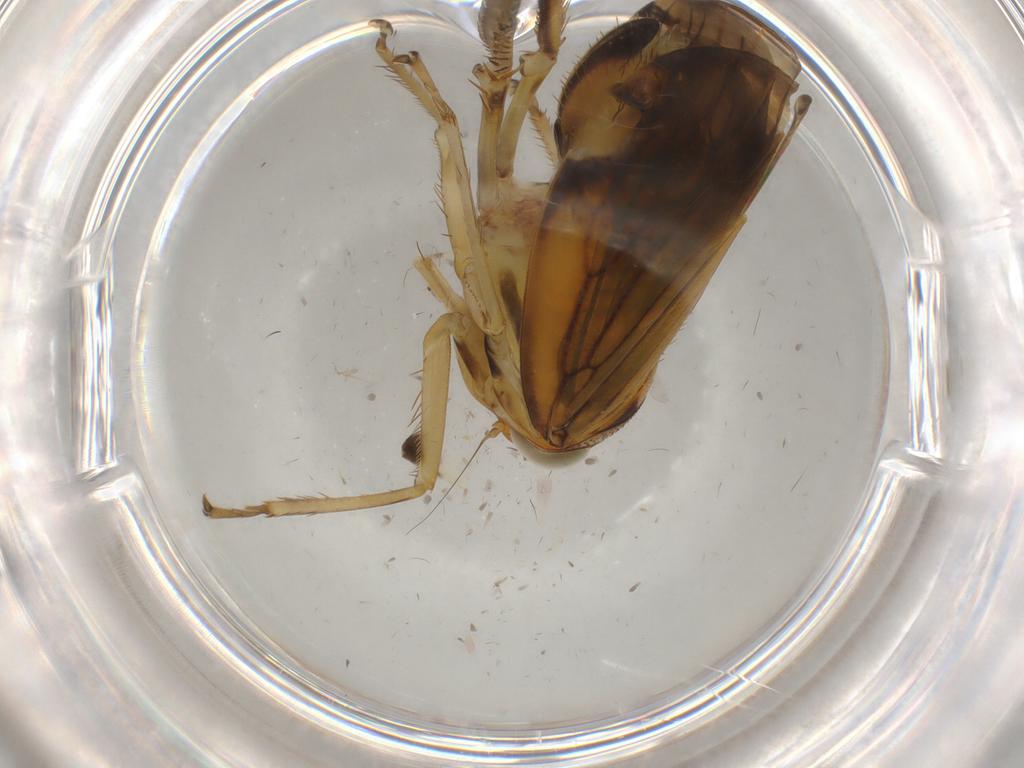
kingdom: Animalia
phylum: Arthropoda
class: Insecta
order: Hemiptera
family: Cicadellidae
